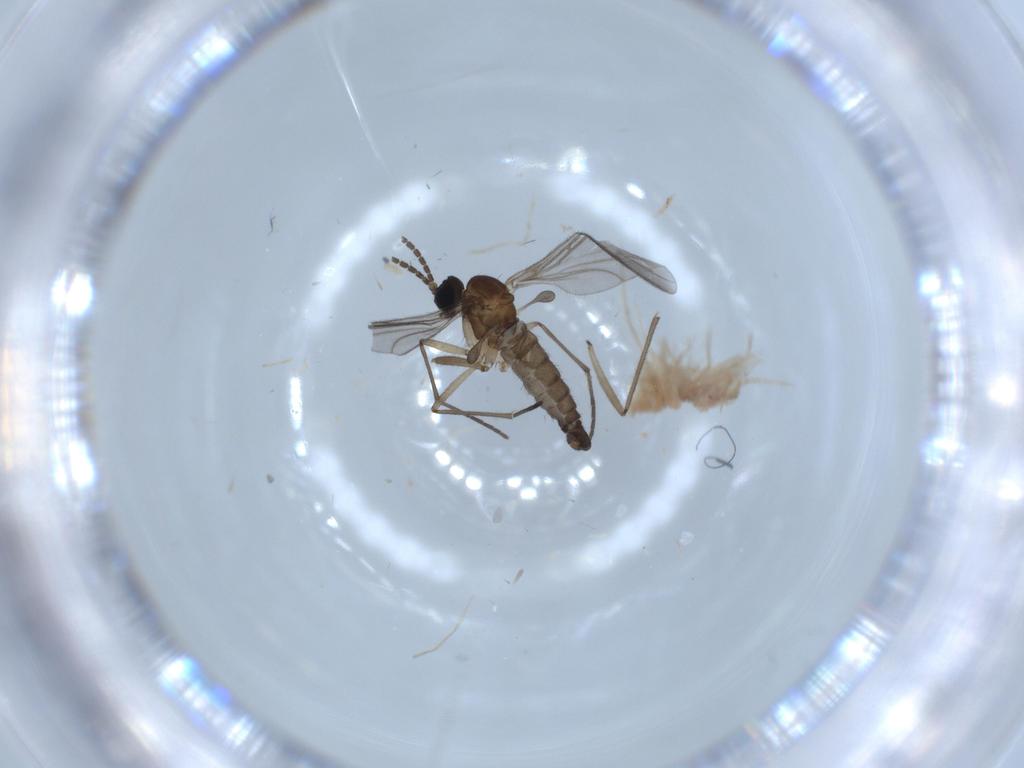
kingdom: Animalia
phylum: Arthropoda
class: Insecta
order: Diptera
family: Sciaridae
